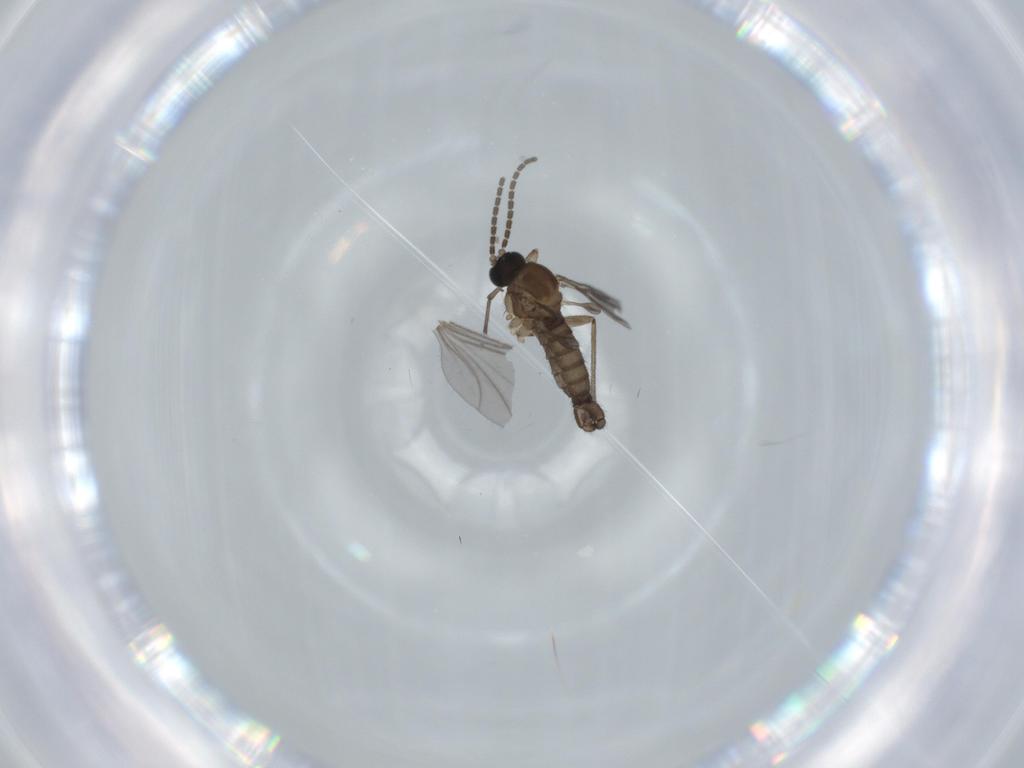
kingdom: Animalia
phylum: Arthropoda
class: Insecta
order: Diptera
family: Sciaridae
